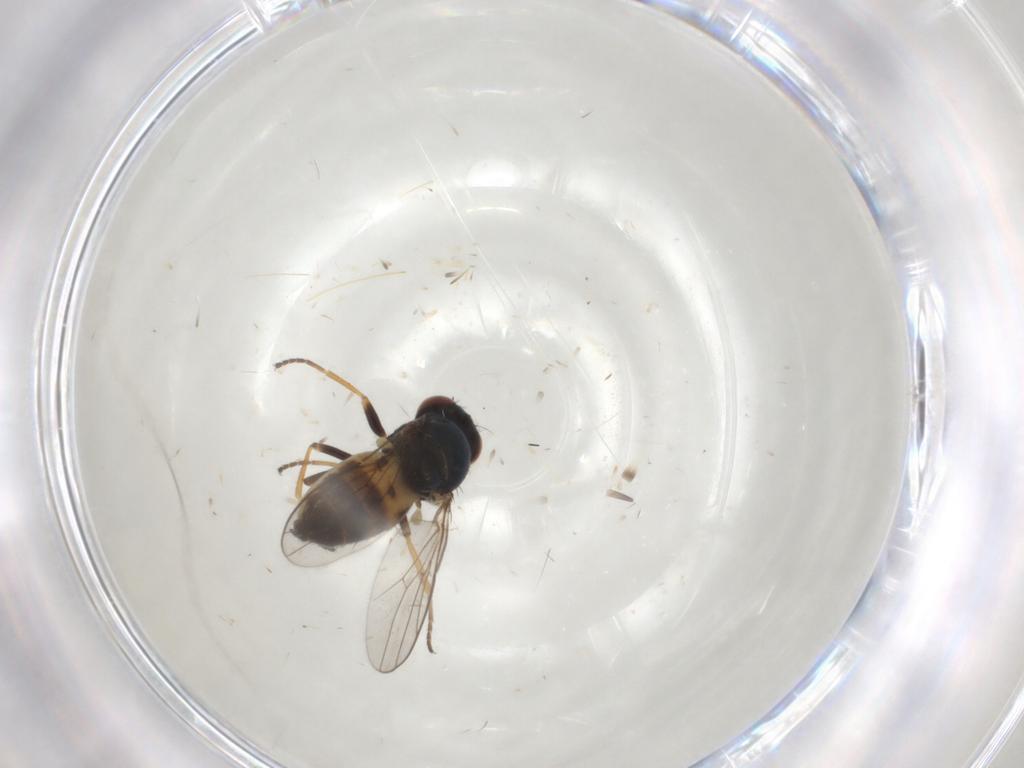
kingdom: Animalia
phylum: Arthropoda
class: Insecta
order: Diptera
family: Chloropidae
